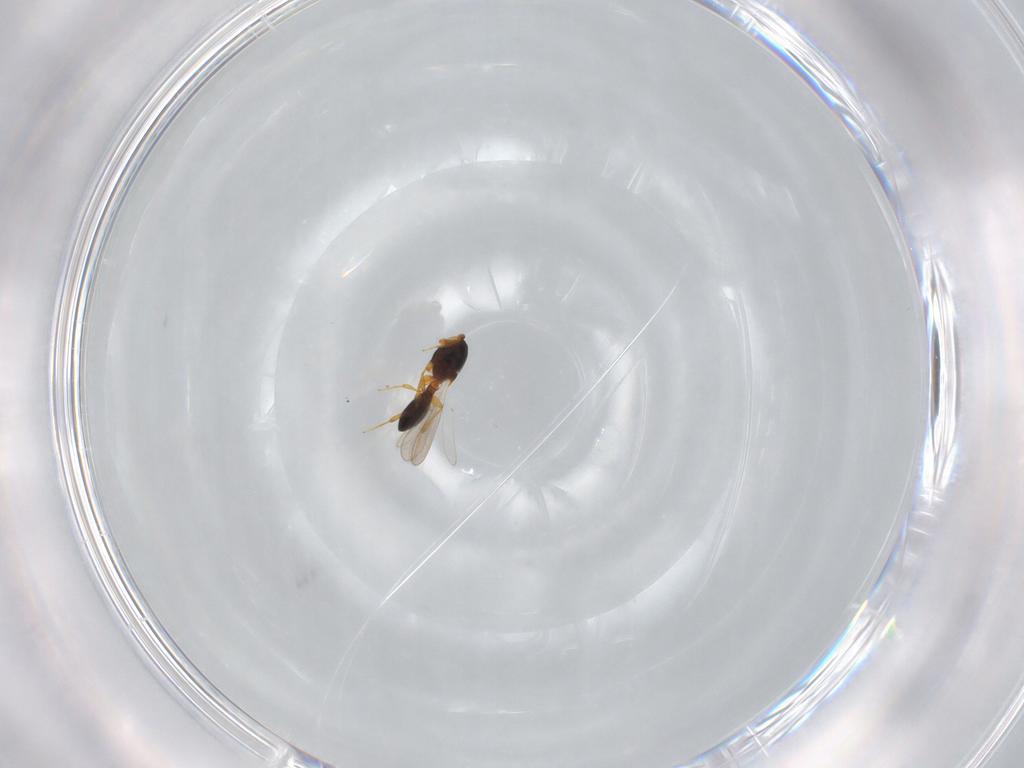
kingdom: Animalia
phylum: Arthropoda
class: Insecta
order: Hymenoptera
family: Platygastridae
